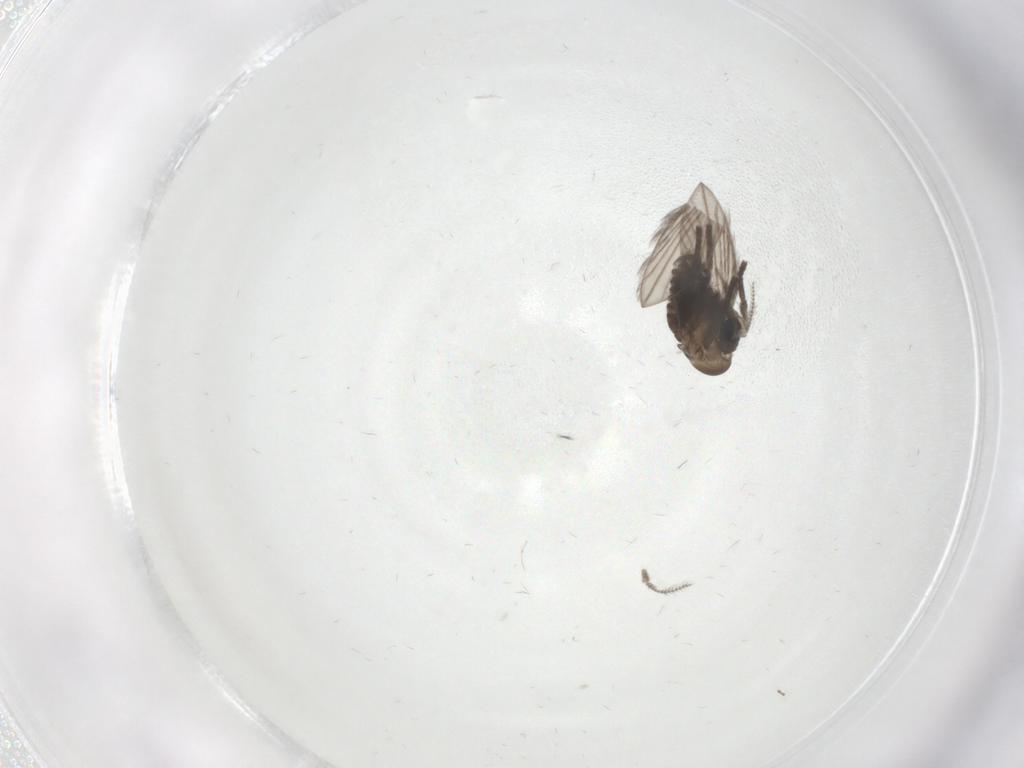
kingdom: Animalia
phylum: Arthropoda
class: Insecta
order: Diptera
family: Psychodidae
